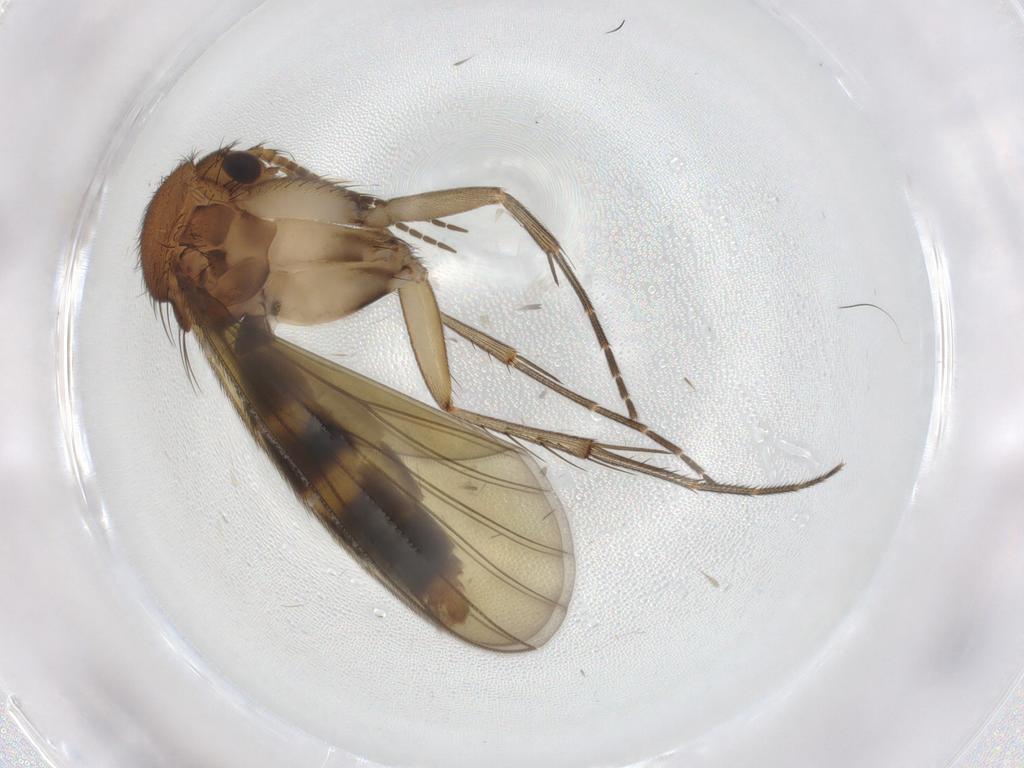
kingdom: Animalia
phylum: Arthropoda
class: Insecta
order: Diptera
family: Phoridae
